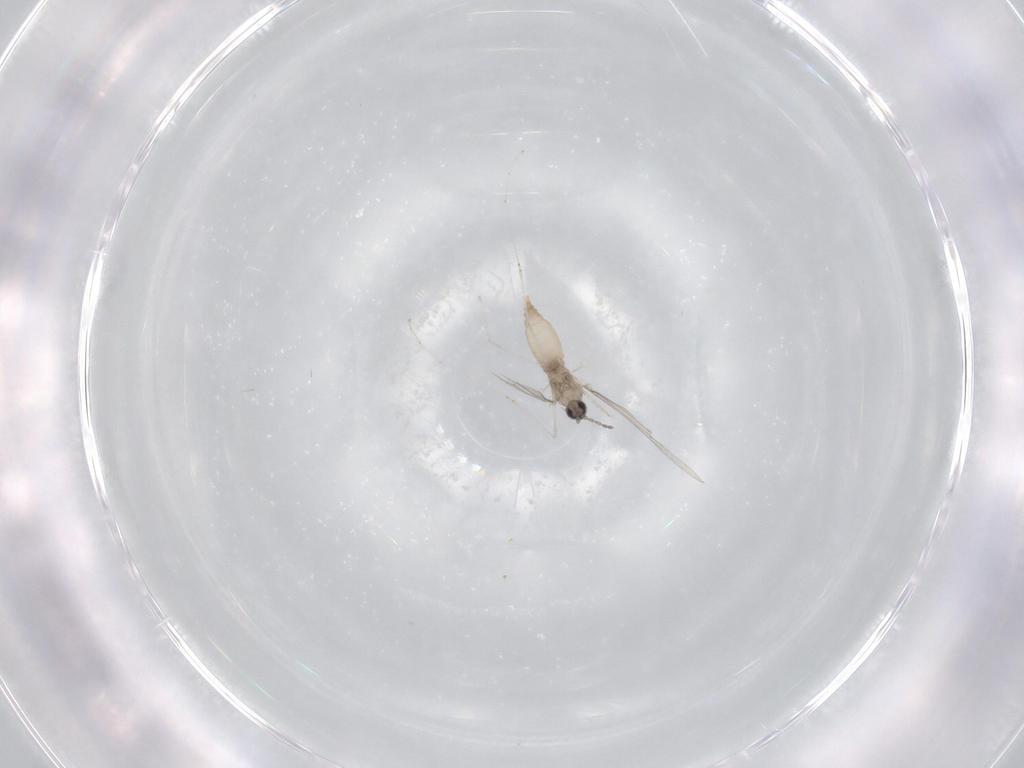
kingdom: Animalia
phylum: Arthropoda
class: Insecta
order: Diptera
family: Cecidomyiidae
